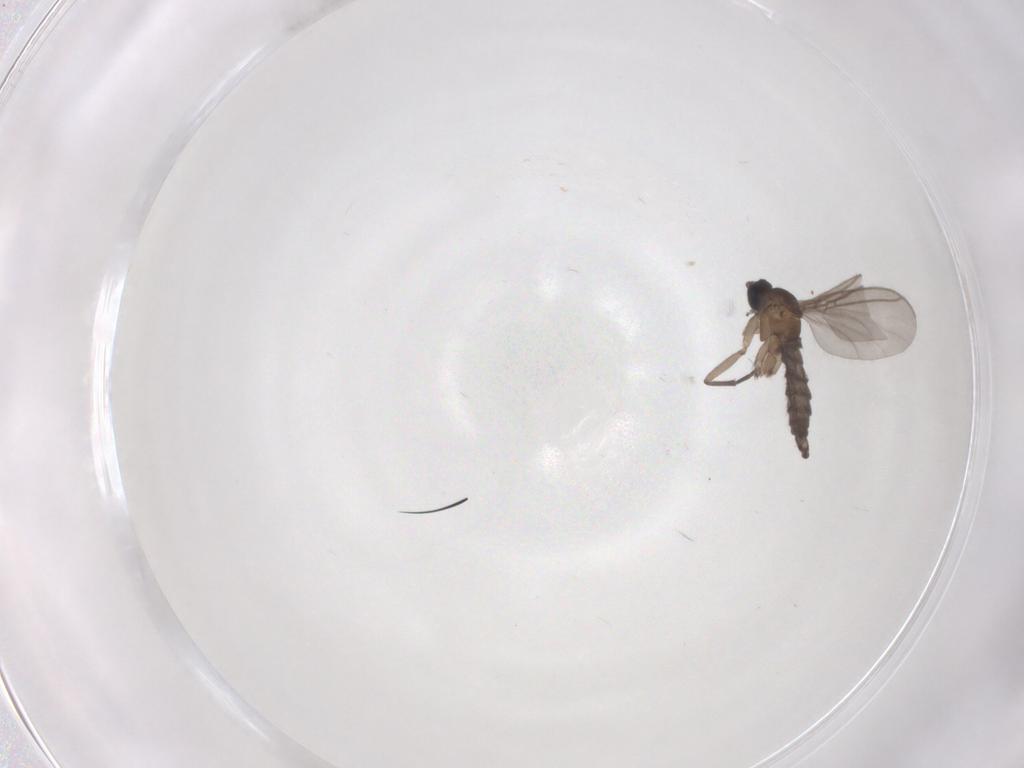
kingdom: Animalia
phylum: Arthropoda
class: Insecta
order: Diptera
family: Sciaridae
